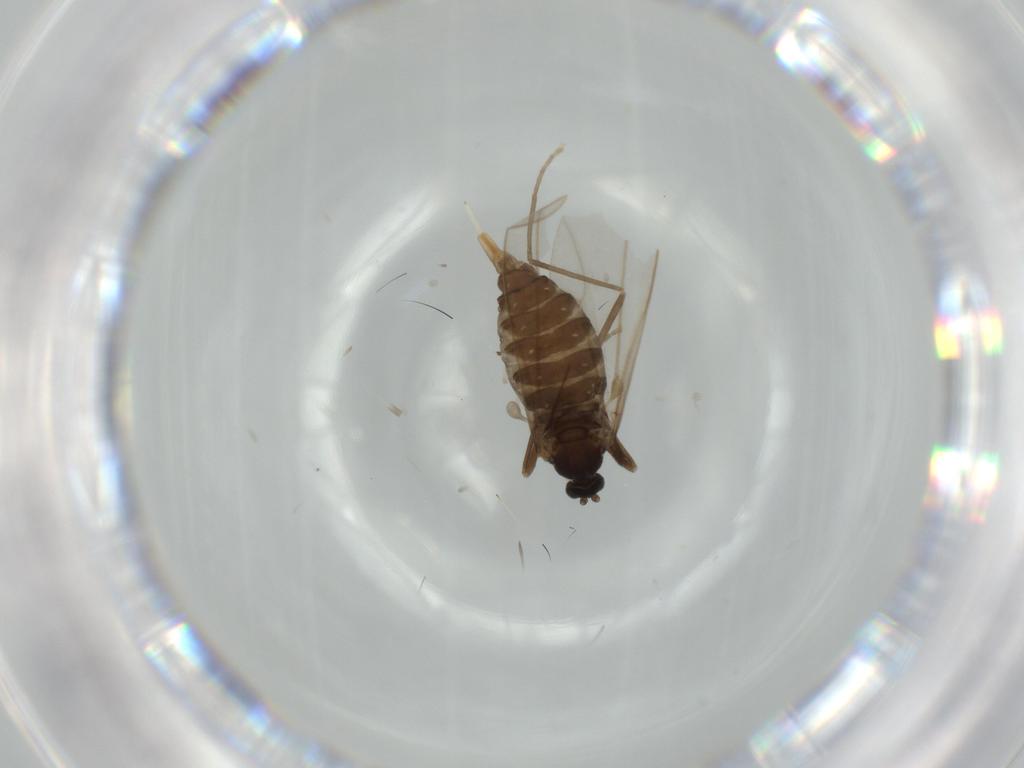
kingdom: Animalia
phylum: Arthropoda
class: Insecta
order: Diptera
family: Cecidomyiidae
